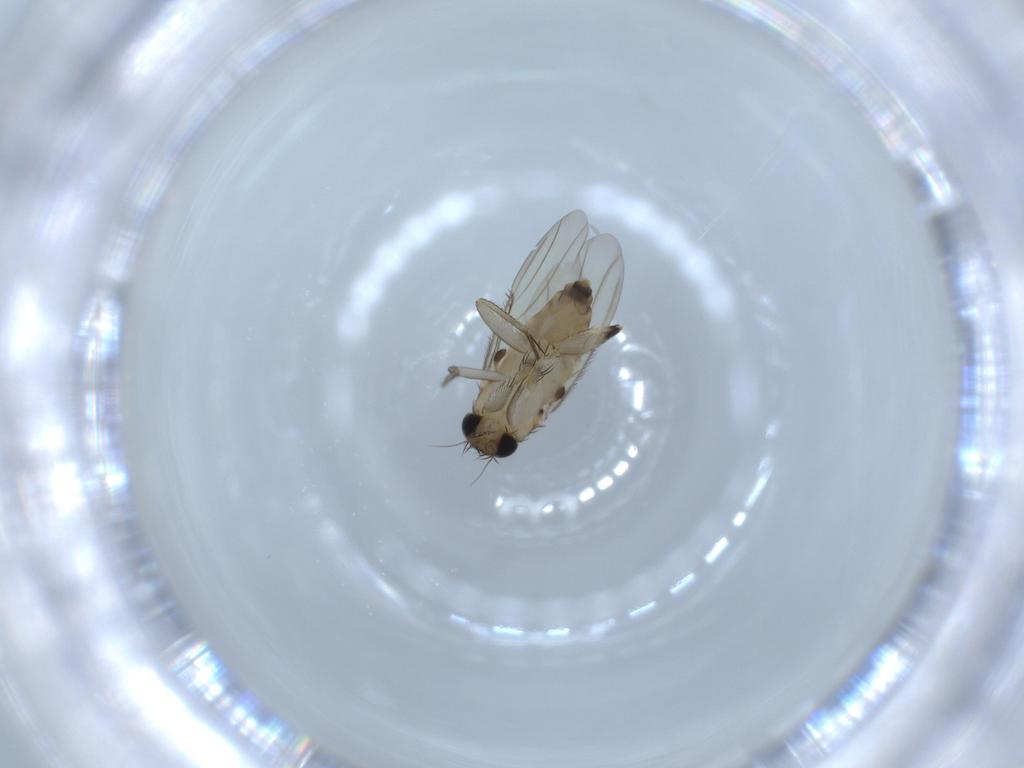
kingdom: Animalia
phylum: Arthropoda
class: Insecta
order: Diptera
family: Phoridae
